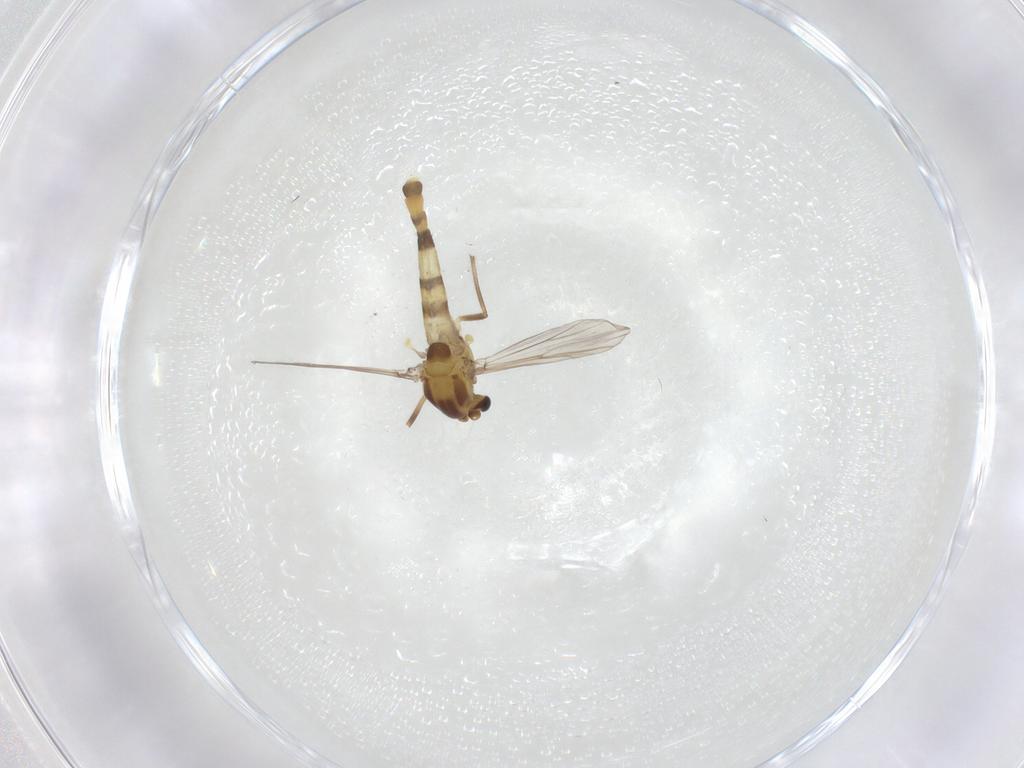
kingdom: Animalia
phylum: Arthropoda
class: Insecta
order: Diptera
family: Chironomidae
